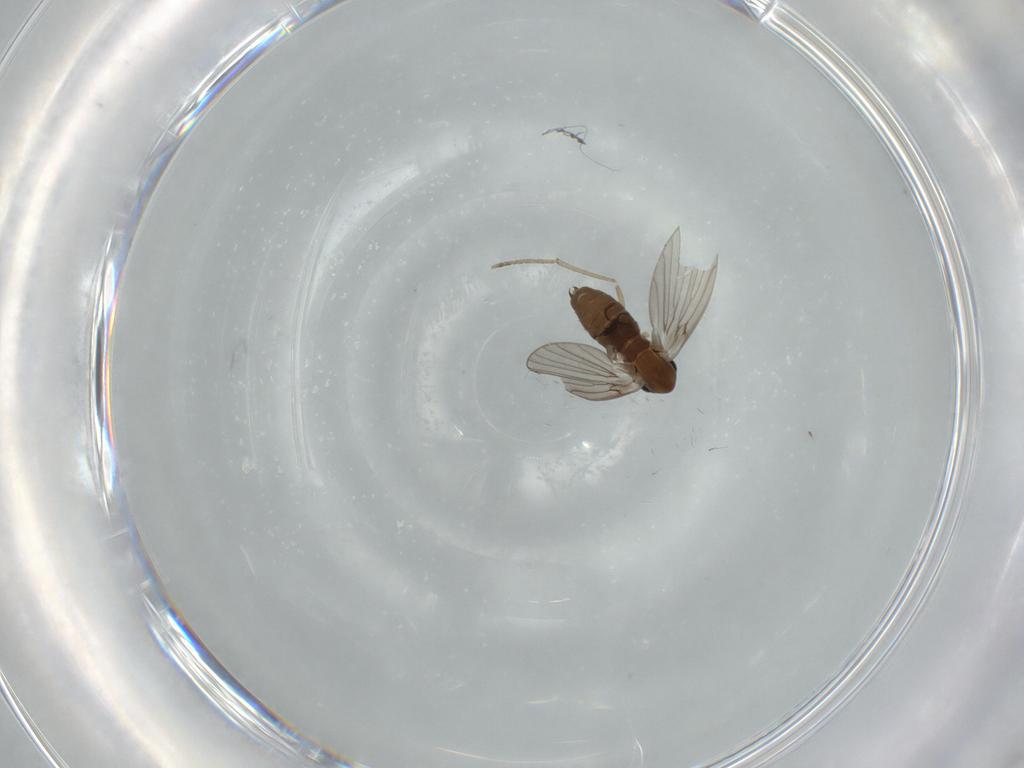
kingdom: Animalia
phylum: Arthropoda
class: Insecta
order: Diptera
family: Psychodidae
